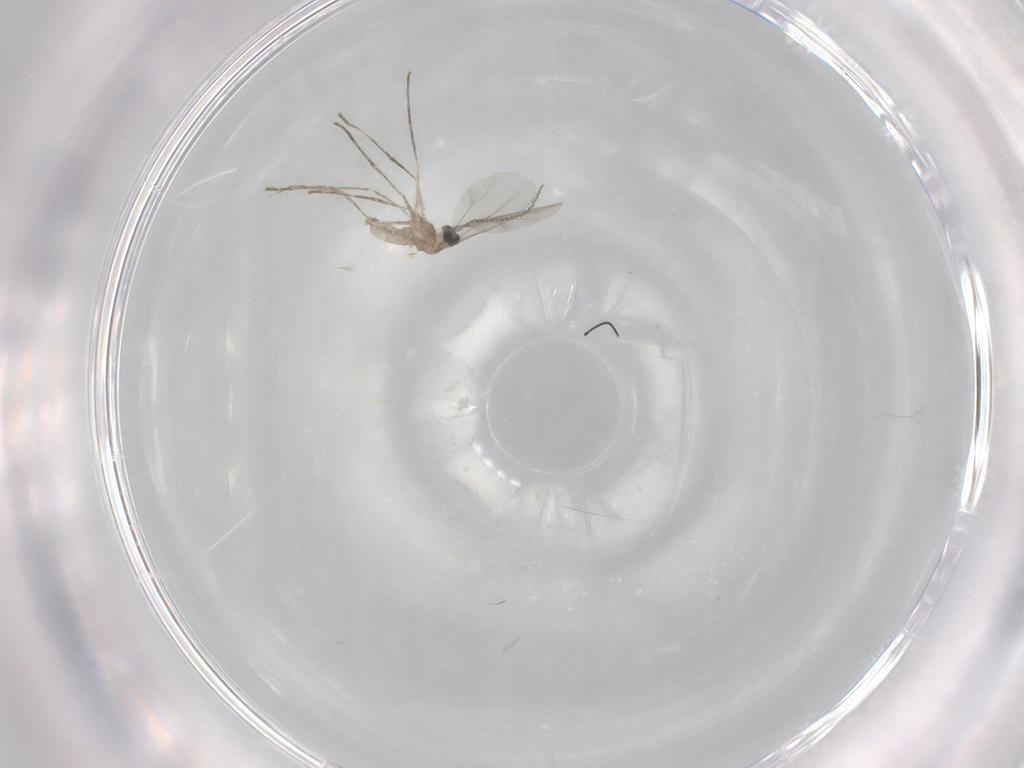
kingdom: Animalia
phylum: Arthropoda
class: Insecta
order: Diptera
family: Cecidomyiidae
